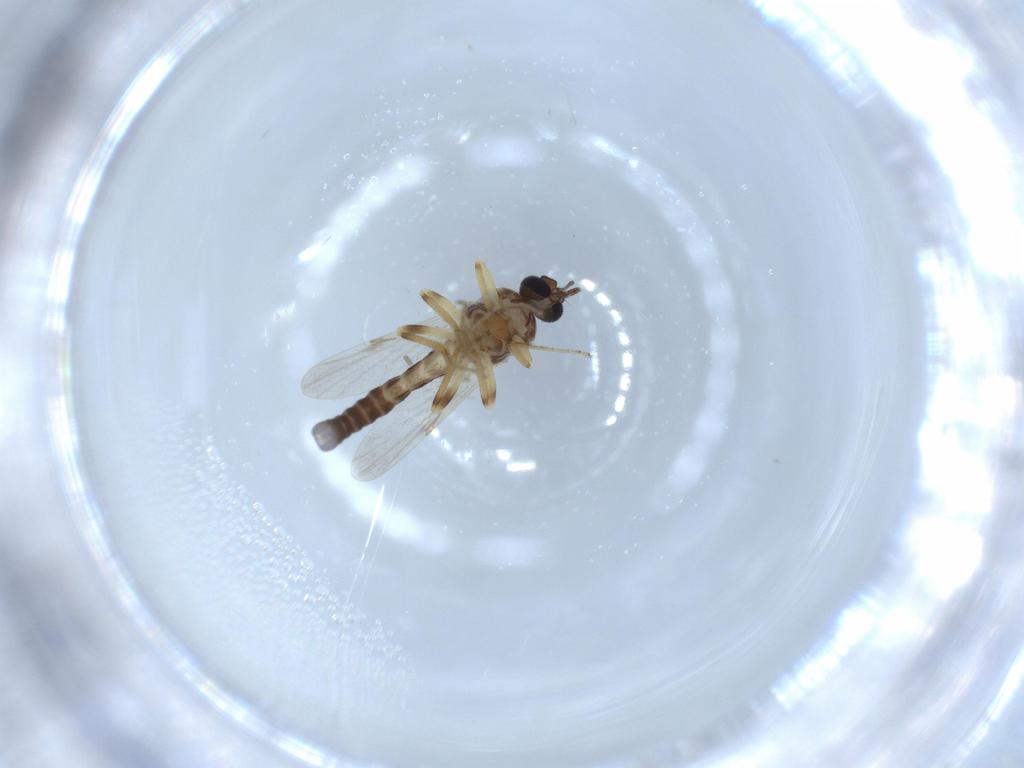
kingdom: Animalia
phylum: Arthropoda
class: Insecta
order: Diptera
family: Ceratopogonidae
